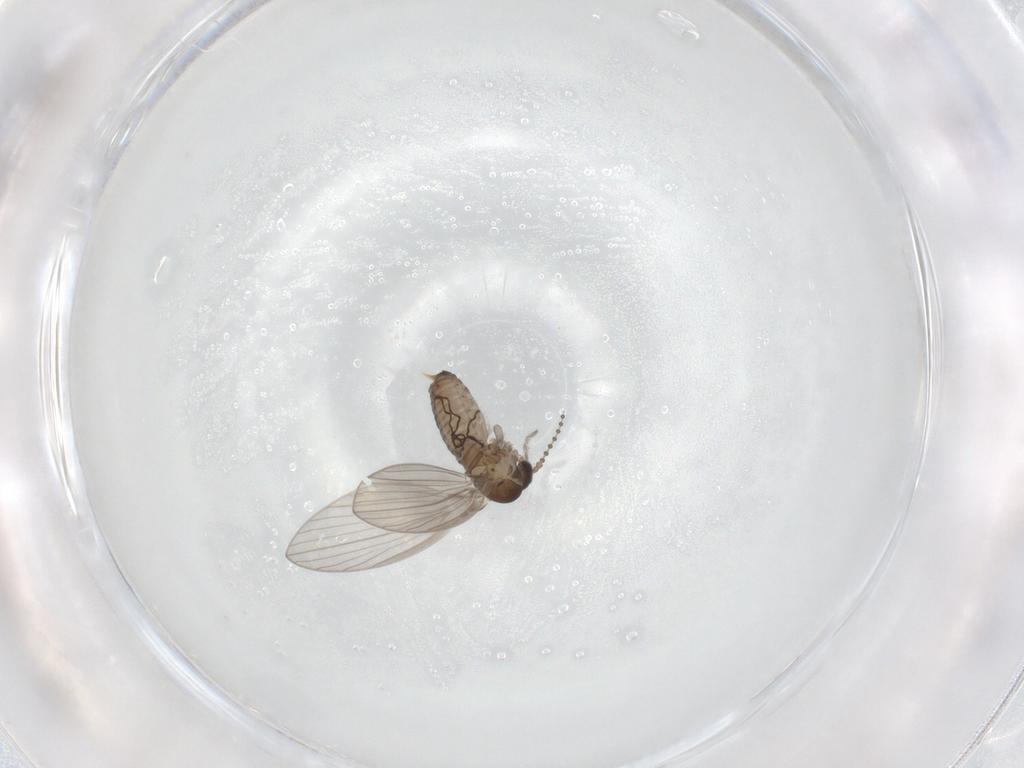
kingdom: Animalia
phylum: Arthropoda
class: Insecta
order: Diptera
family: Psychodidae
